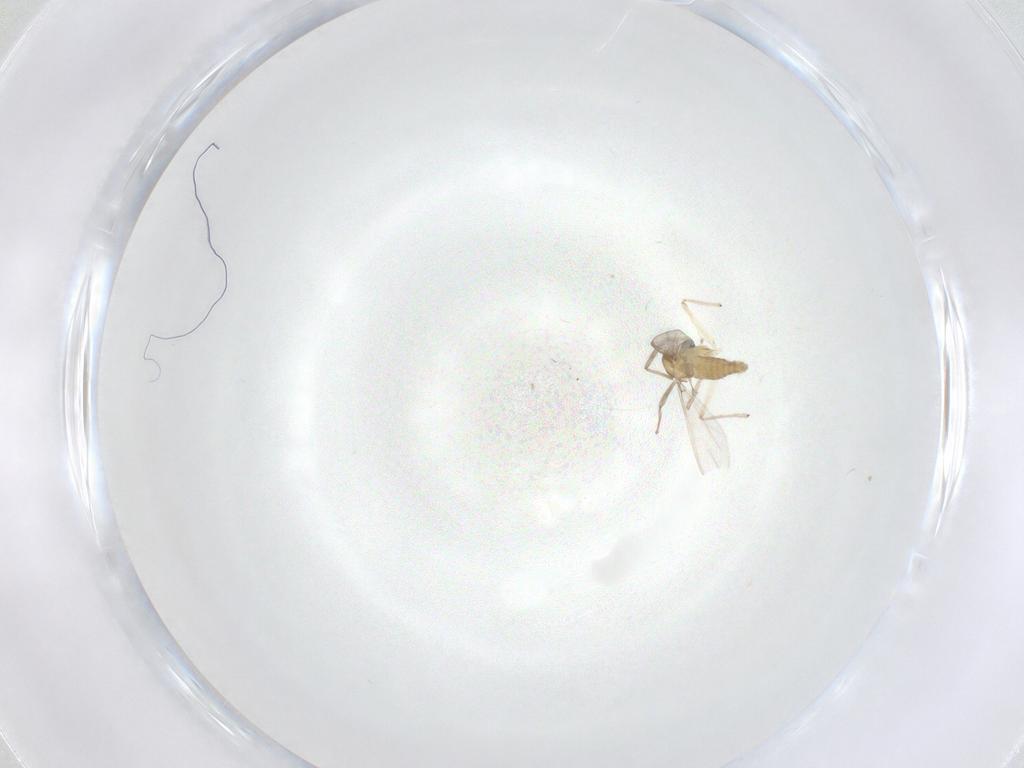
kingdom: Animalia
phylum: Arthropoda
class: Insecta
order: Diptera
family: Chironomidae
